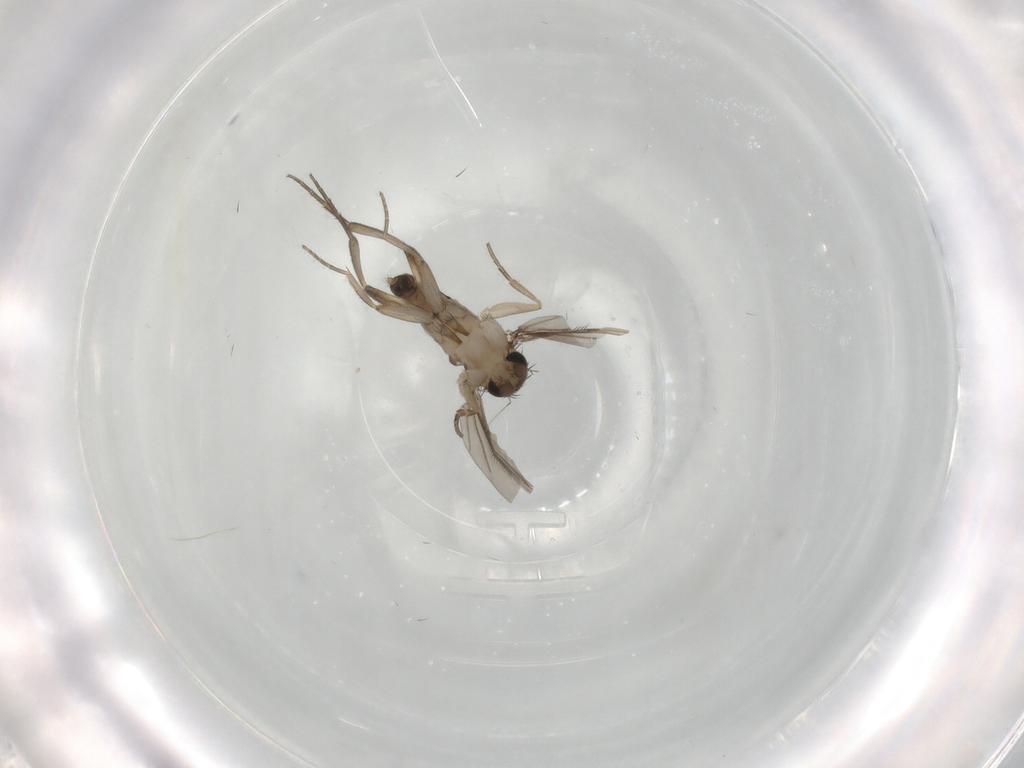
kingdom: Animalia
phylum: Arthropoda
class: Insecta
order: Diptera
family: Phoridae
